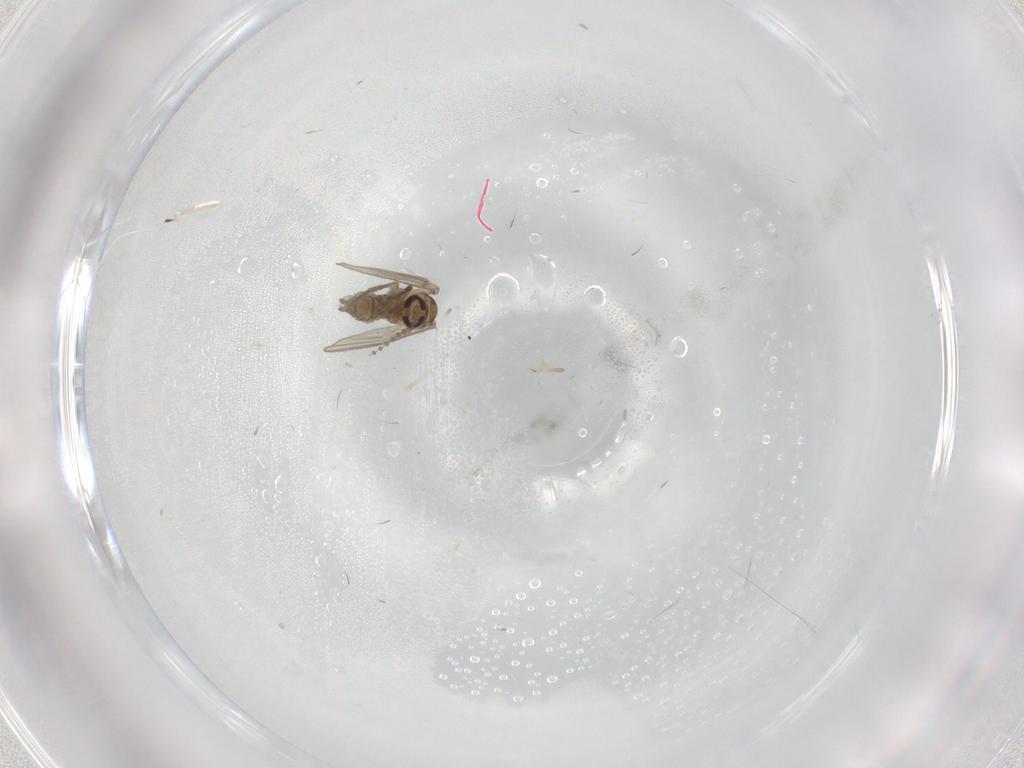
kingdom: Animalia
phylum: Arthropoda
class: Insecta
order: Diptera
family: Psychodidae
